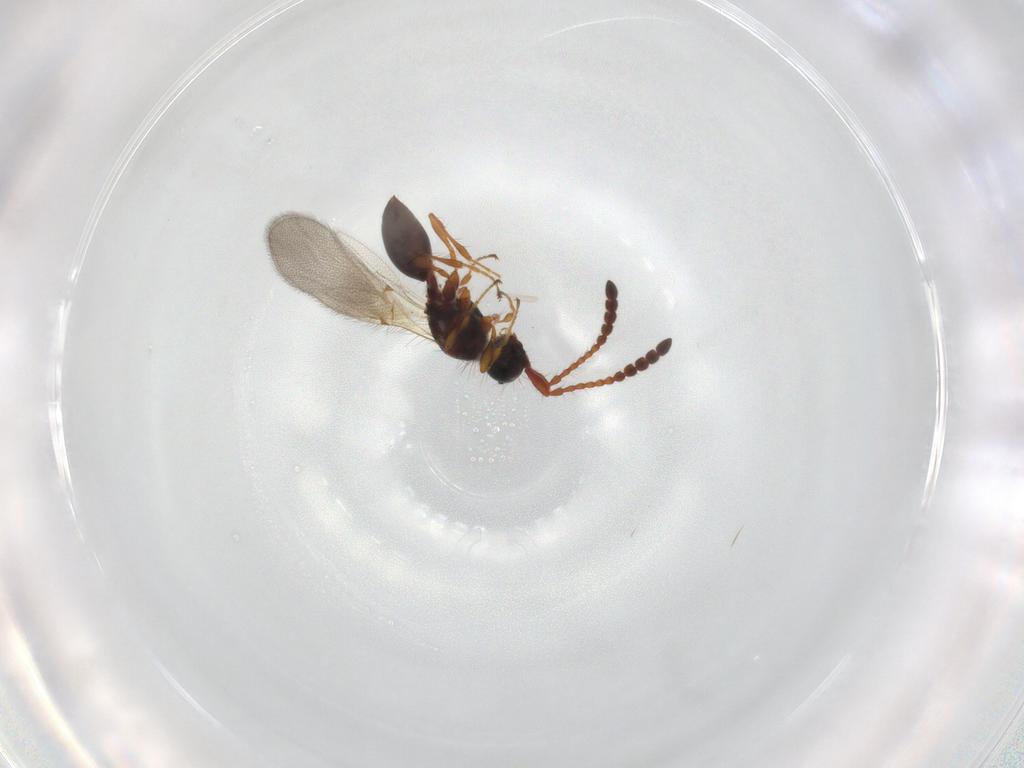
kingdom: Animalia
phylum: Arthropoda
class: Insecta
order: Hymenoptera
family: Diapriidae
